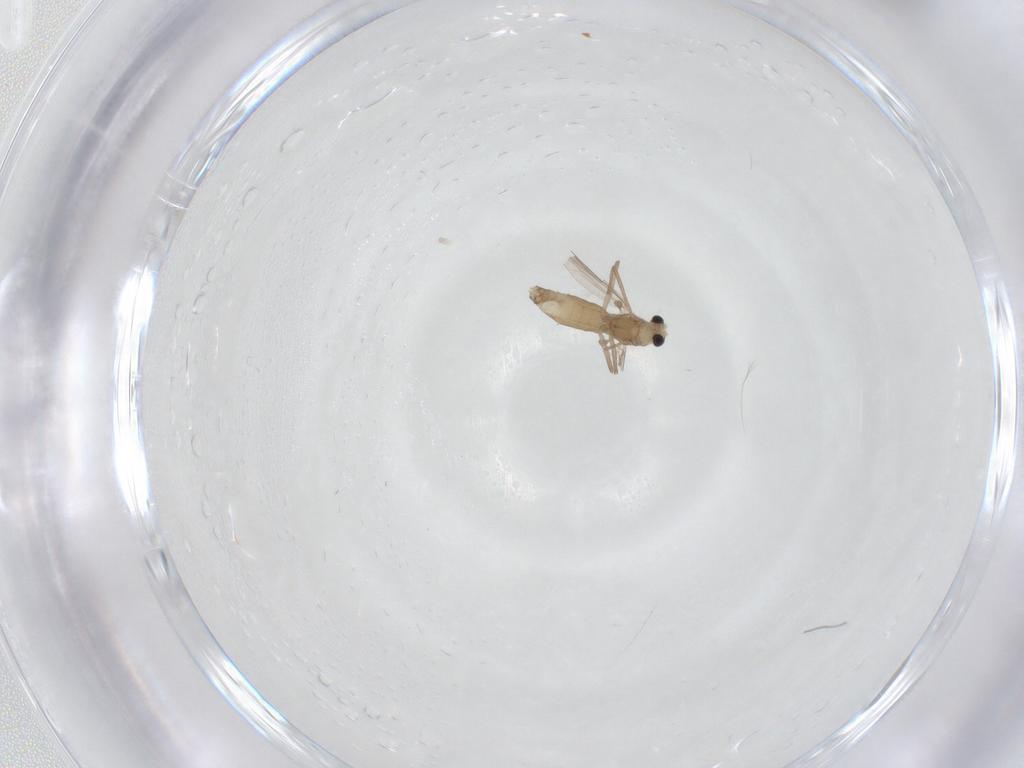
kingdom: Animalia
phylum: Arthropoda
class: Insecta
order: Diptera
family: Chironomidae
